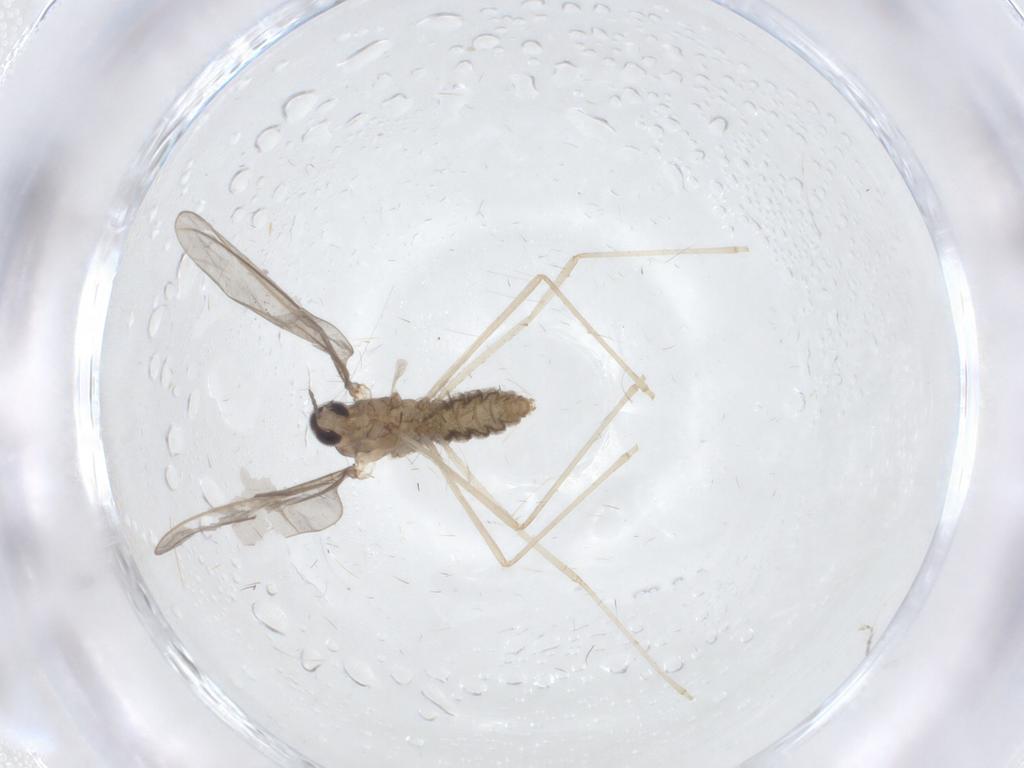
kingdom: Animalia
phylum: Arthropoda
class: Insecta
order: Diptera
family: Cecidomyiidae
